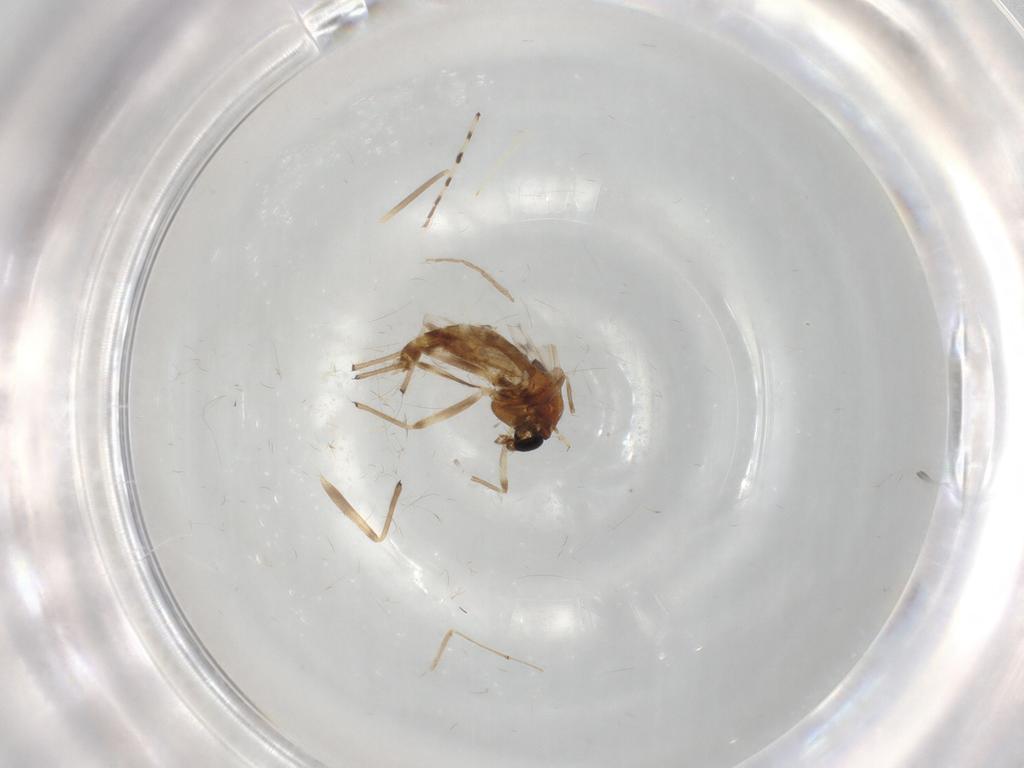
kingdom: Animalia
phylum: Arthropoda
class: Insecta
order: Diptera
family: Chironomidae
